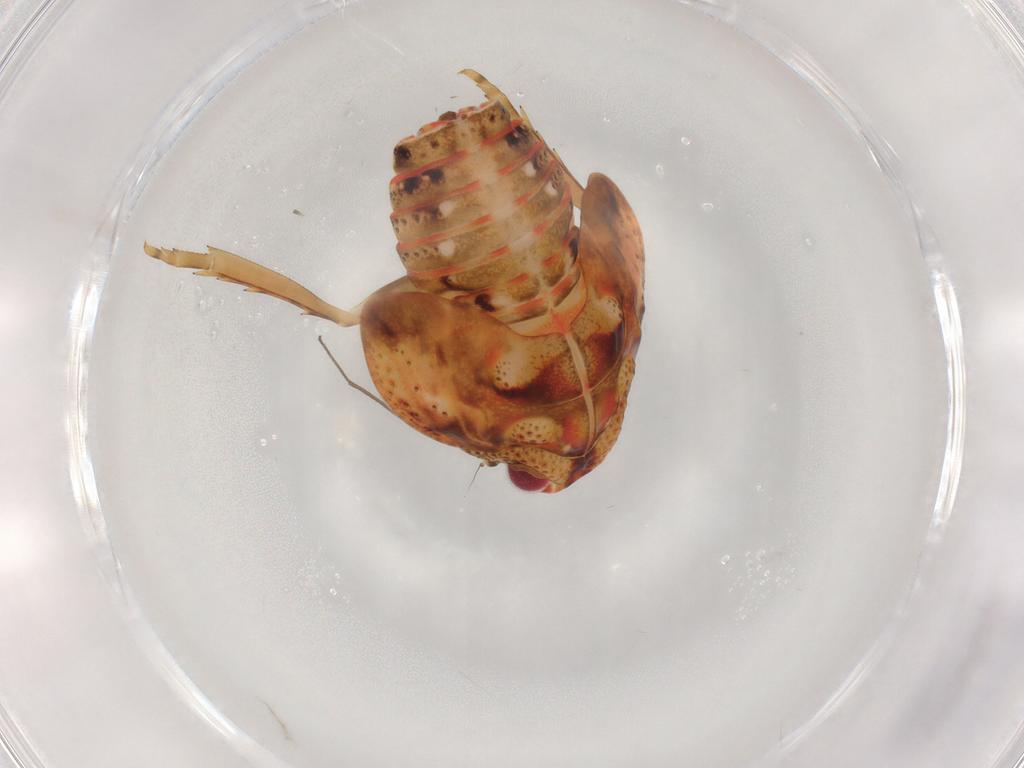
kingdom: Animalia
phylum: Arthropoda
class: Insecta
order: Hemiptera
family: Flatidae
